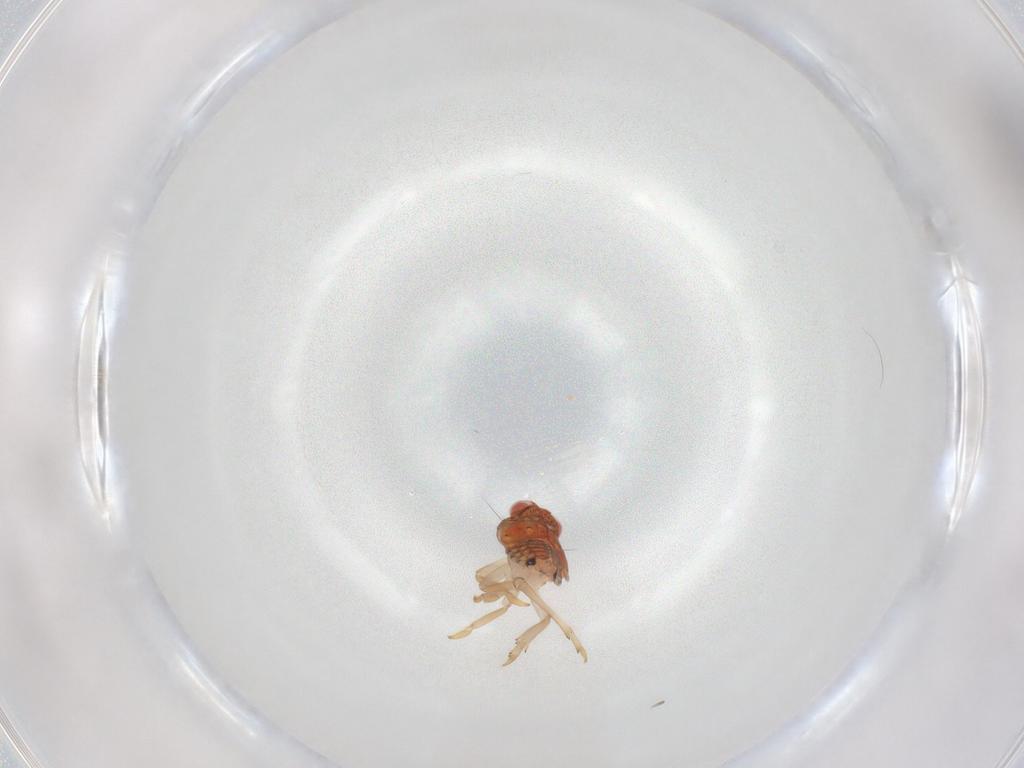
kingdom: Animalia
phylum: Arthropoda
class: Insecta
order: Hemiptera
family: Fulgoroidea_incertae_sedis
